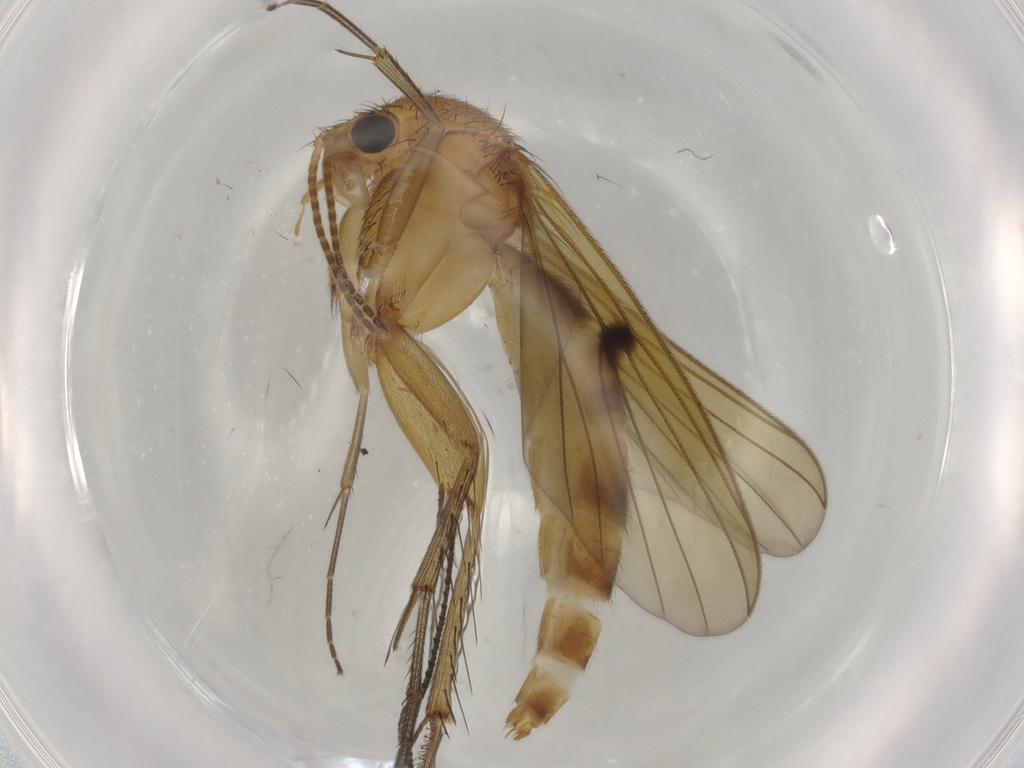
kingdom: Animalia
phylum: Arthropoda
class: Insecta
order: Diptera
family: Mycetophilidae
